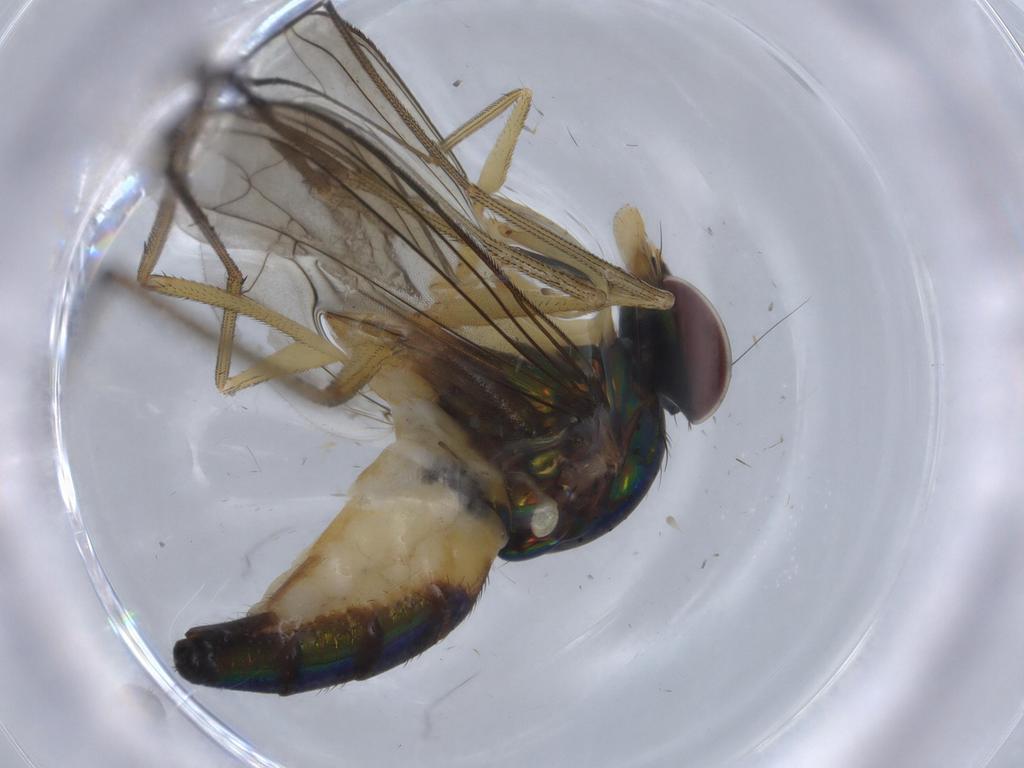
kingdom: Animalia
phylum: Arthropoda
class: Insecta
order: Diptera
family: Dolichopodidae
